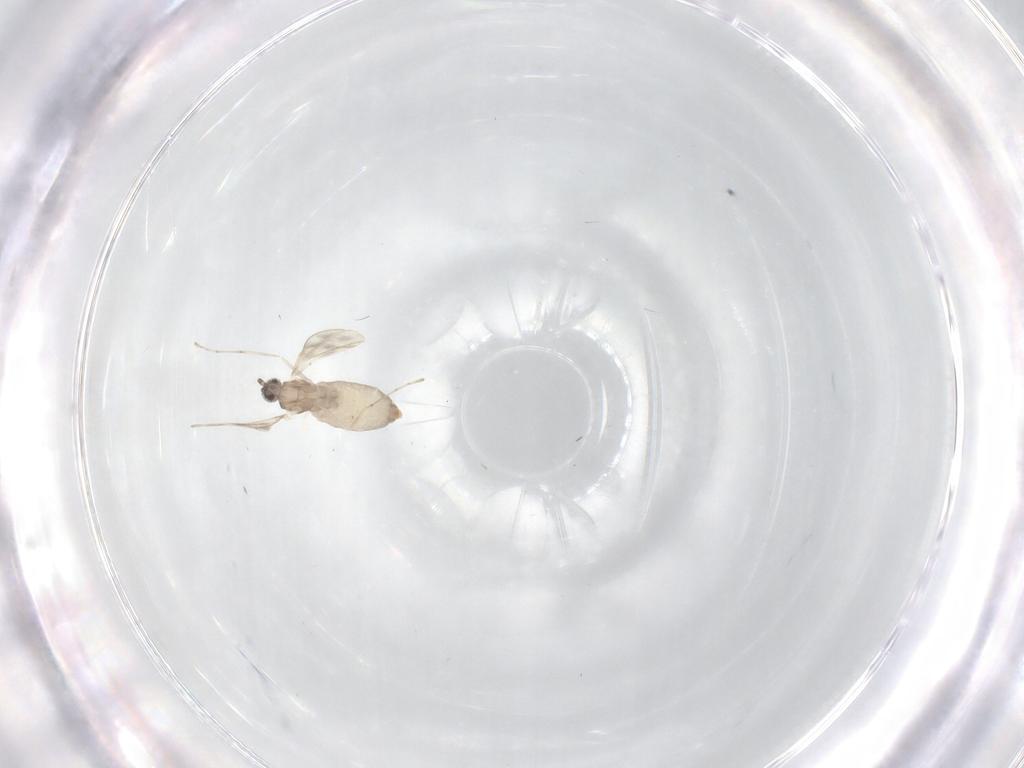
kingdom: Animalia
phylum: Arthropoda
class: Insecta
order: Diptera
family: Cecidomyiidae
